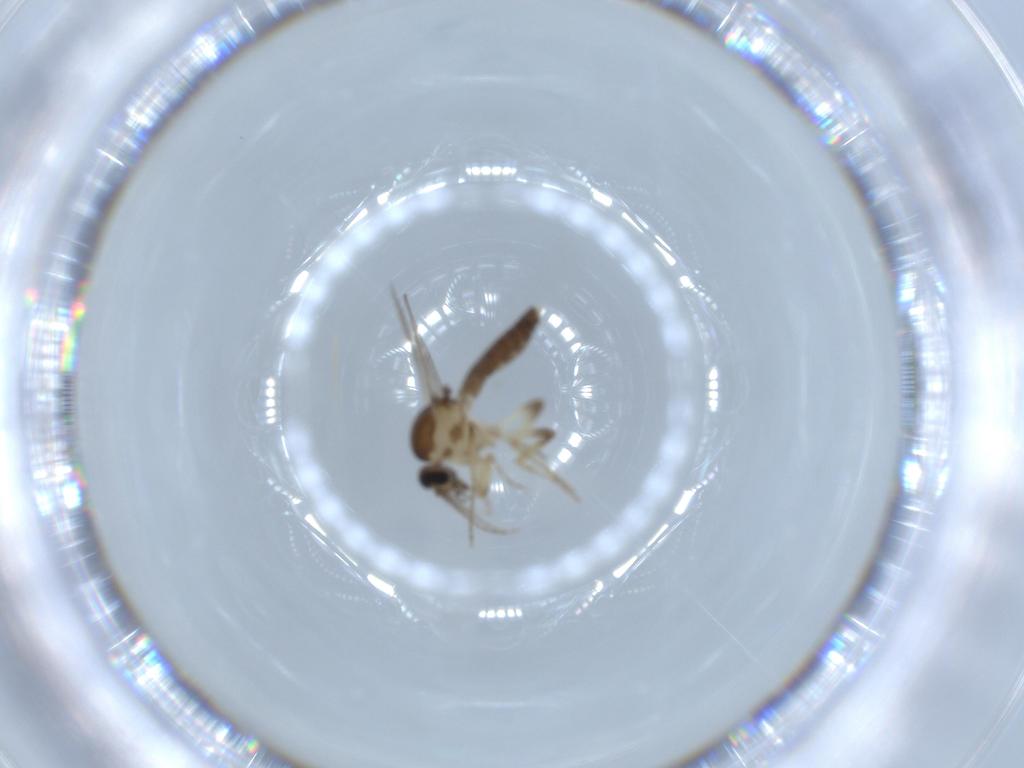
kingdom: Animalia
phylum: Arthropoda
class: Insecta
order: Diptera
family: Ceratopogonidae
